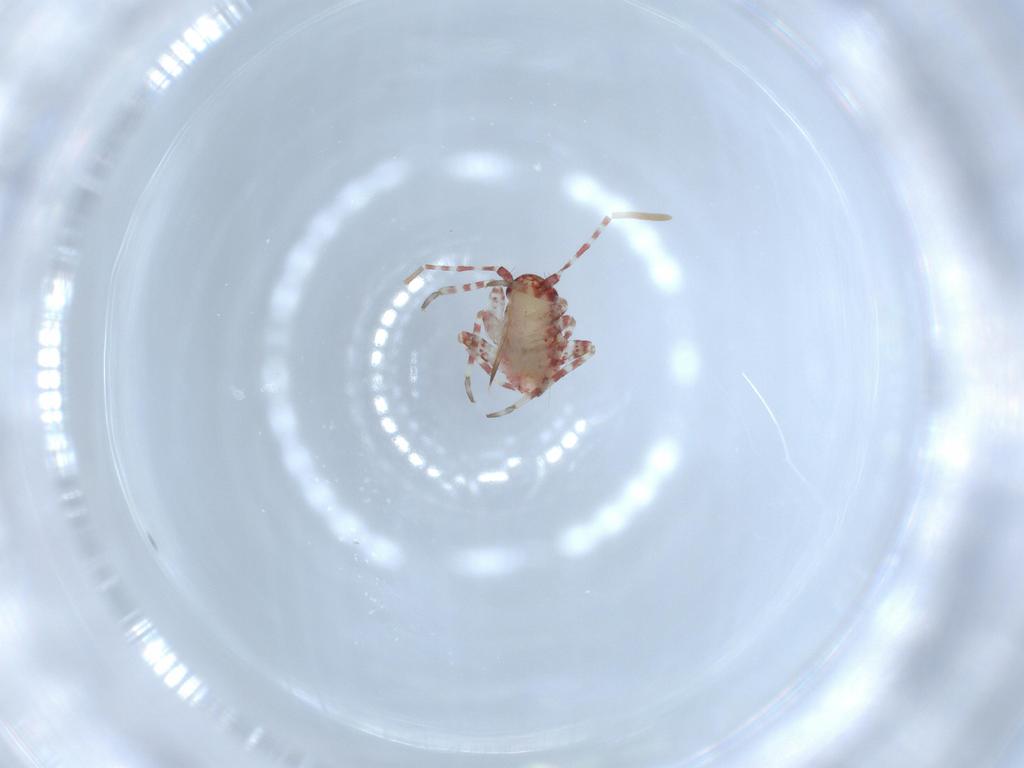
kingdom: Animalia
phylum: Arthropoda
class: Insecta
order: Hemiptera
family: Miridae
